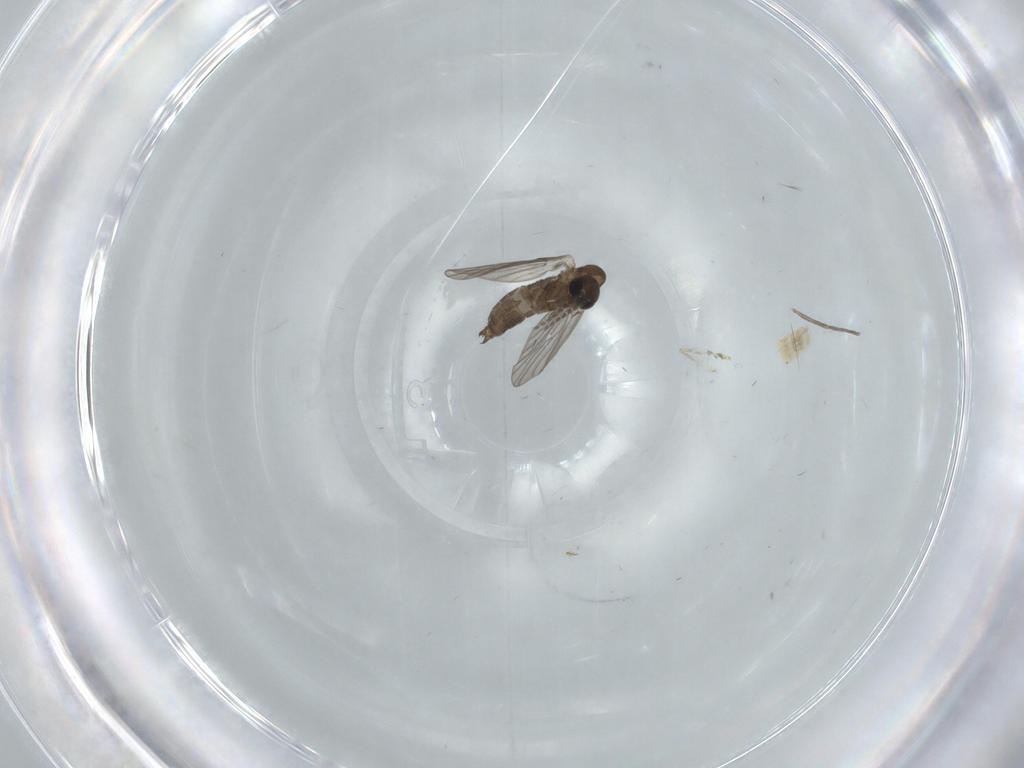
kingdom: Animalia
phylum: Arthropoda
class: Insecta
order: Diptera
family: Psychodidae
